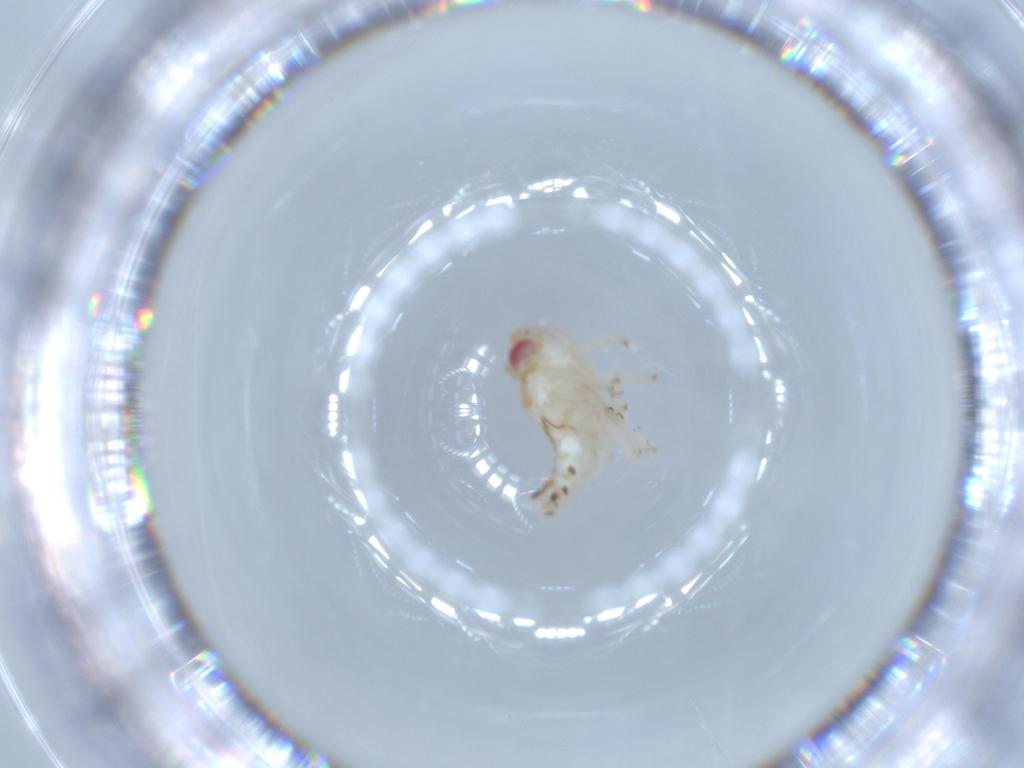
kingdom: Animalia
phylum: Arthropoda
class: Insecta
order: Hemiptera
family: Nogodinidae
